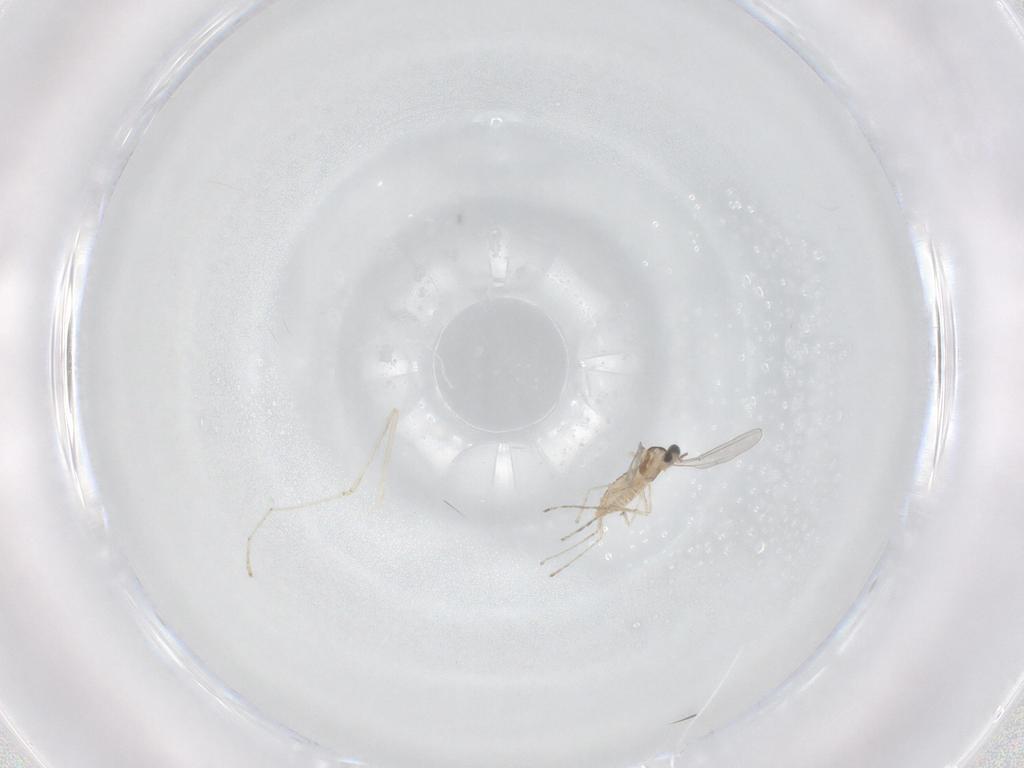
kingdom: Animalia
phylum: Arthropoda
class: Insecta
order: Diptera
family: Cecidomyiidae
